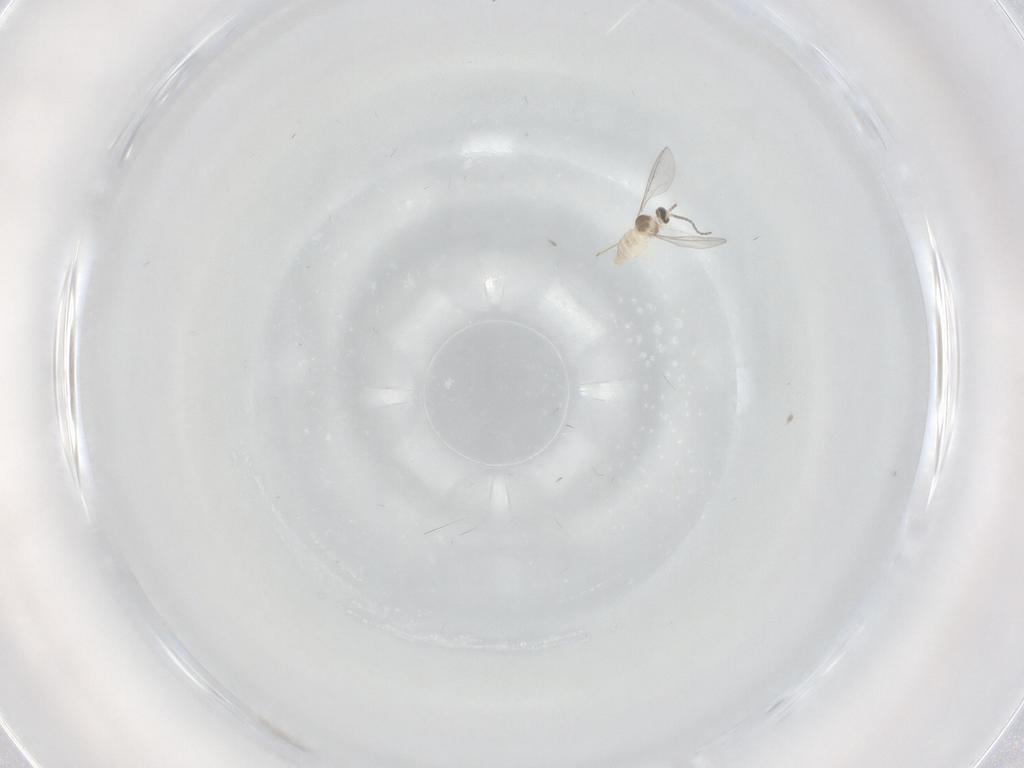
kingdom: Animalia
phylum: Arthropoda
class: Insecta
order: Diptera
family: Cecidomyiidae
